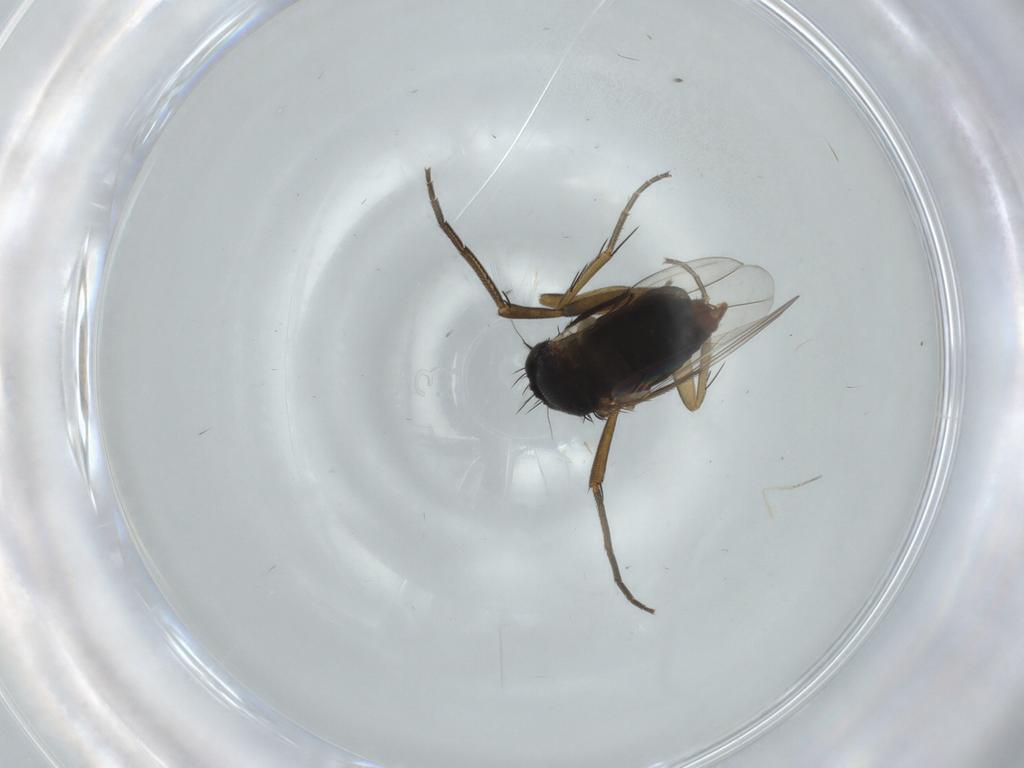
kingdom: Animalia
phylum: Arthropoda
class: Insecta
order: Diptera
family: Phoridae
